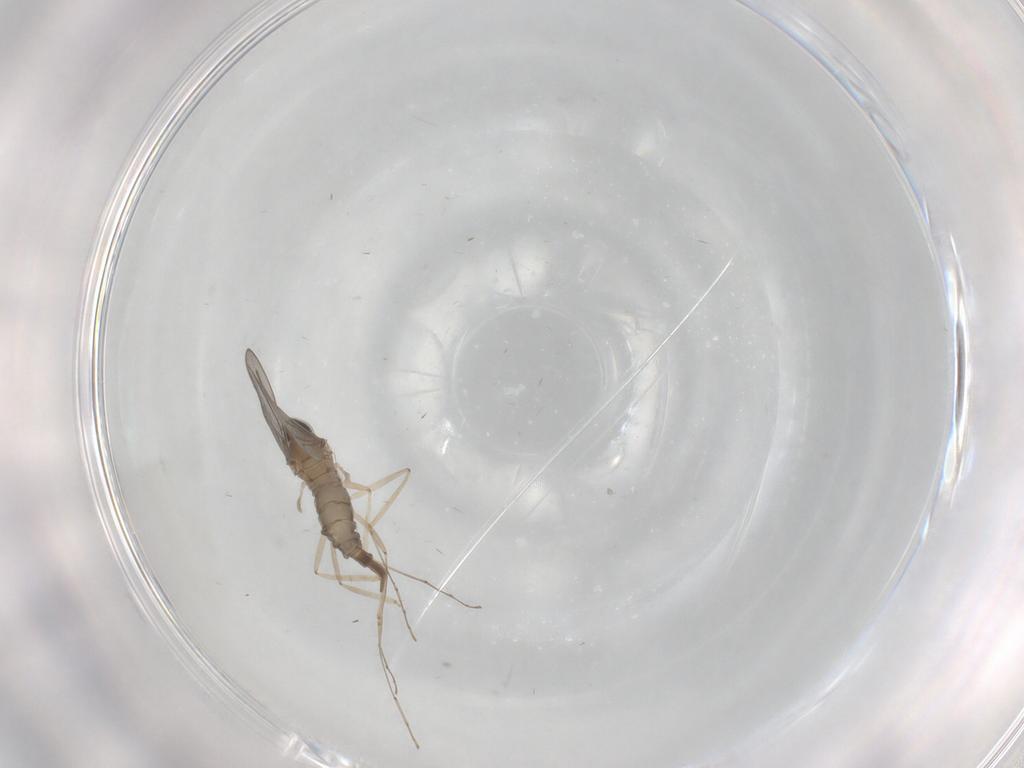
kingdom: Animalia
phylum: Arthropoda
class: Insecta
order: Diptera
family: Cecidomyiidae
